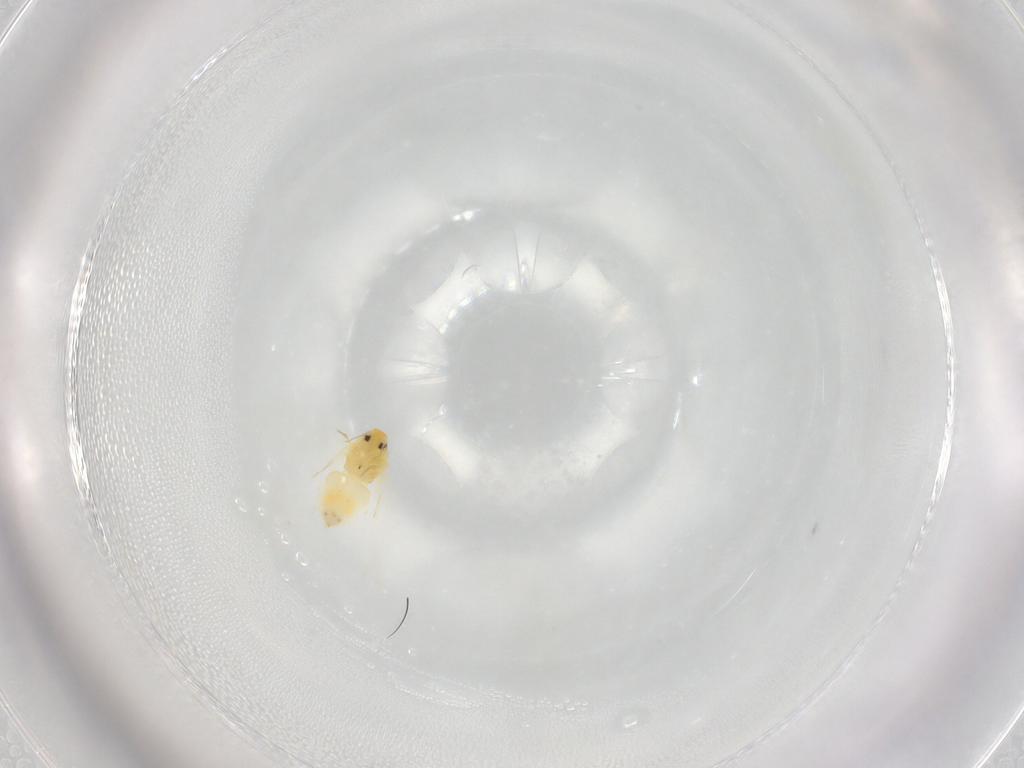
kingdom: Animalia
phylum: Arthropoda
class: Insecta
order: Hemiptera
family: Aleyrodidae
